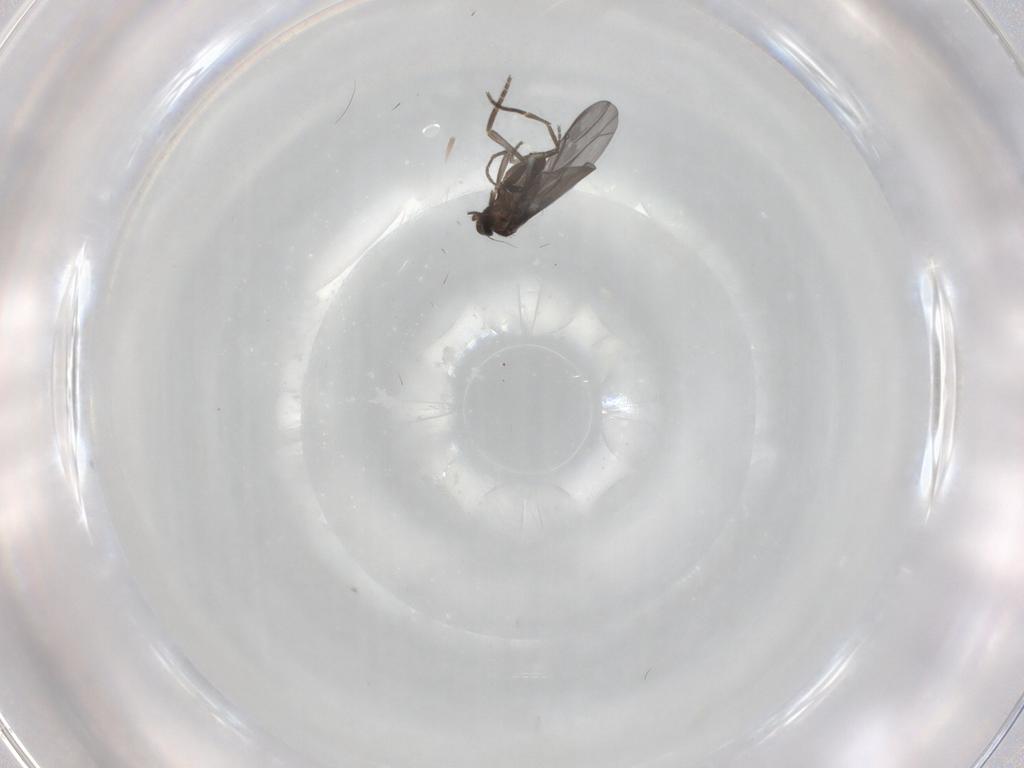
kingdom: Animalia
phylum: Arthropoda
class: Insecta
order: Diptera
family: Phoridae
